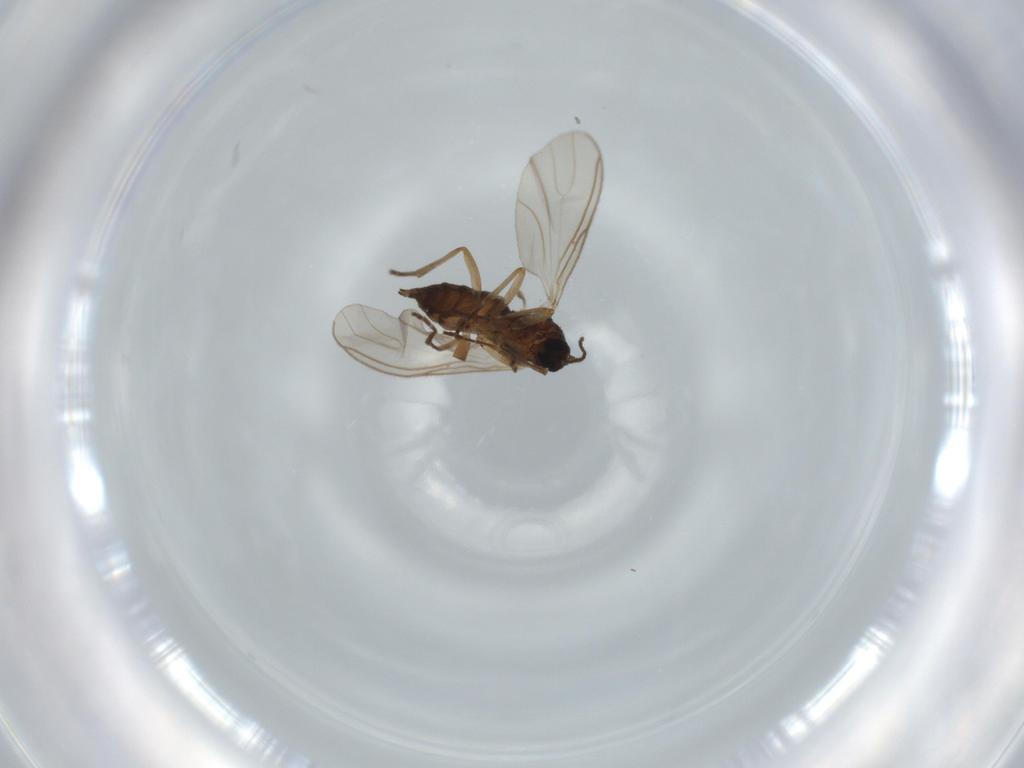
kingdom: Animalia
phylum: Arthropoda
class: Insecta
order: Diptera
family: Sciaridae
